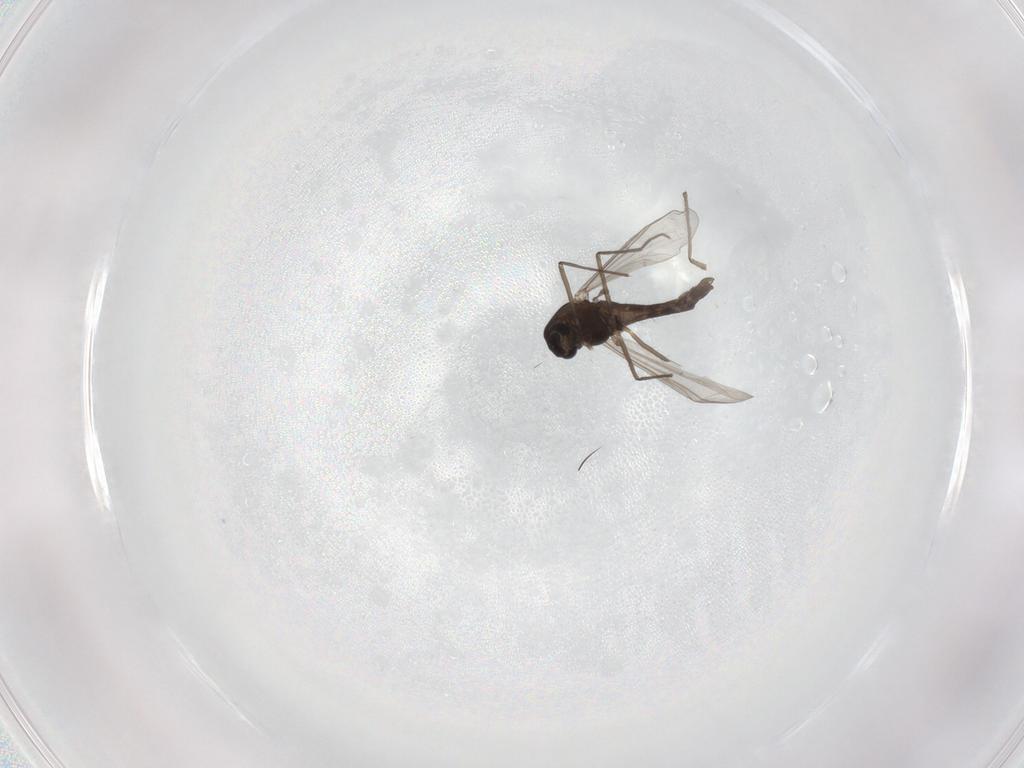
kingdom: Animalia
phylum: Arthropoda
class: Insecta
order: Diptera
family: Chironomidae
